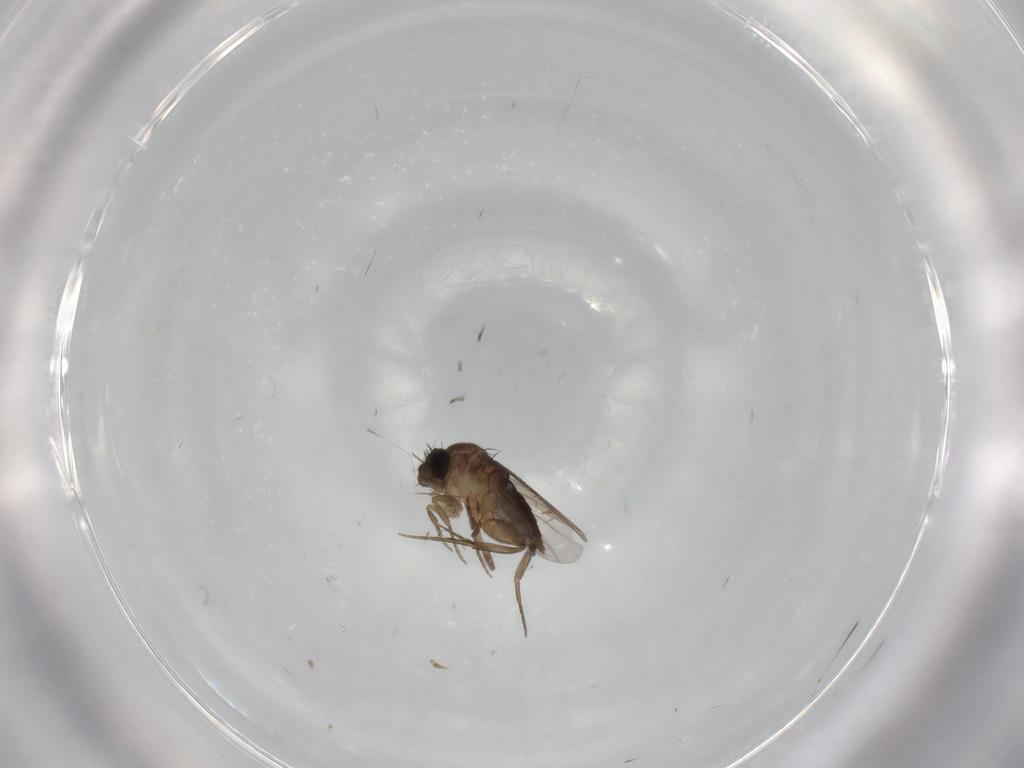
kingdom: Animalia
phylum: Arthropoda
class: Insecta
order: Diptera
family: Phoridae
